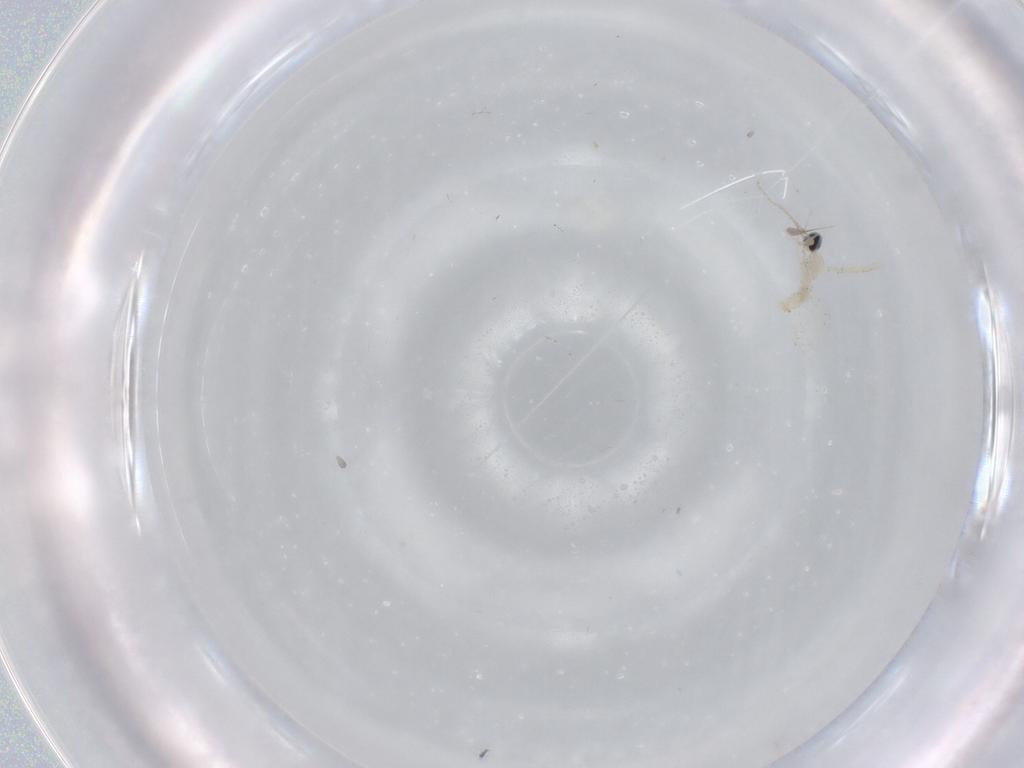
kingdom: Animalia
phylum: Arthropoda
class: Insecta
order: Diptera
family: Cecidomyiidae
